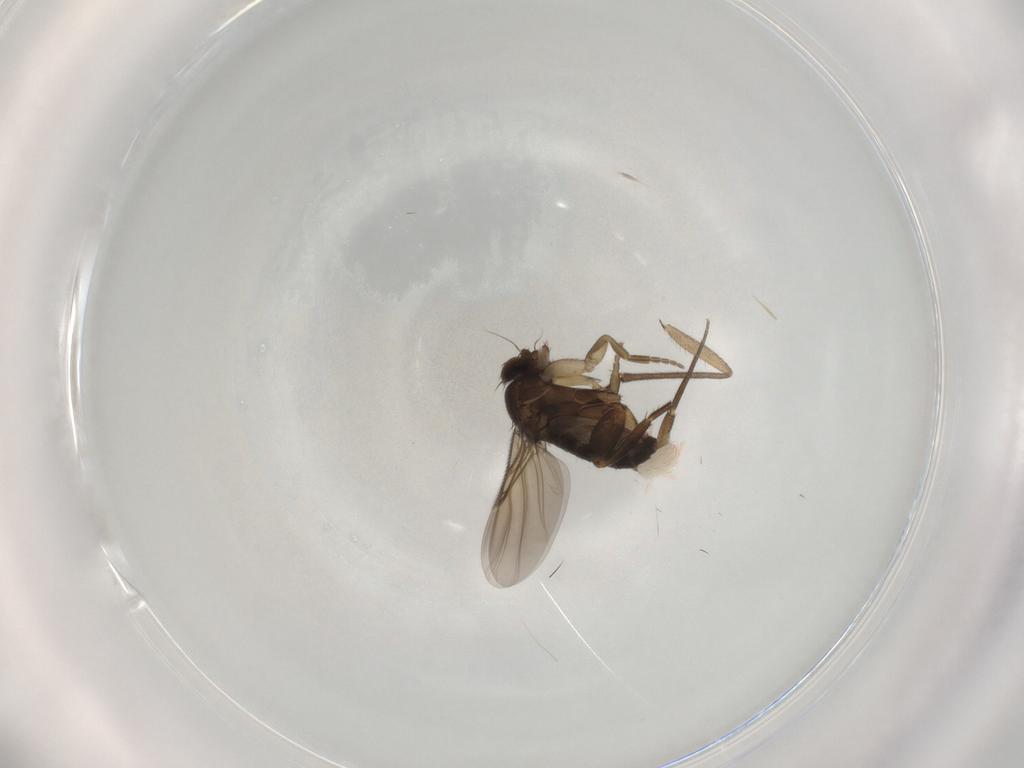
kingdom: Animalia
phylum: Arthropoda
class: Insecta
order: Diptera
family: Phoridae
